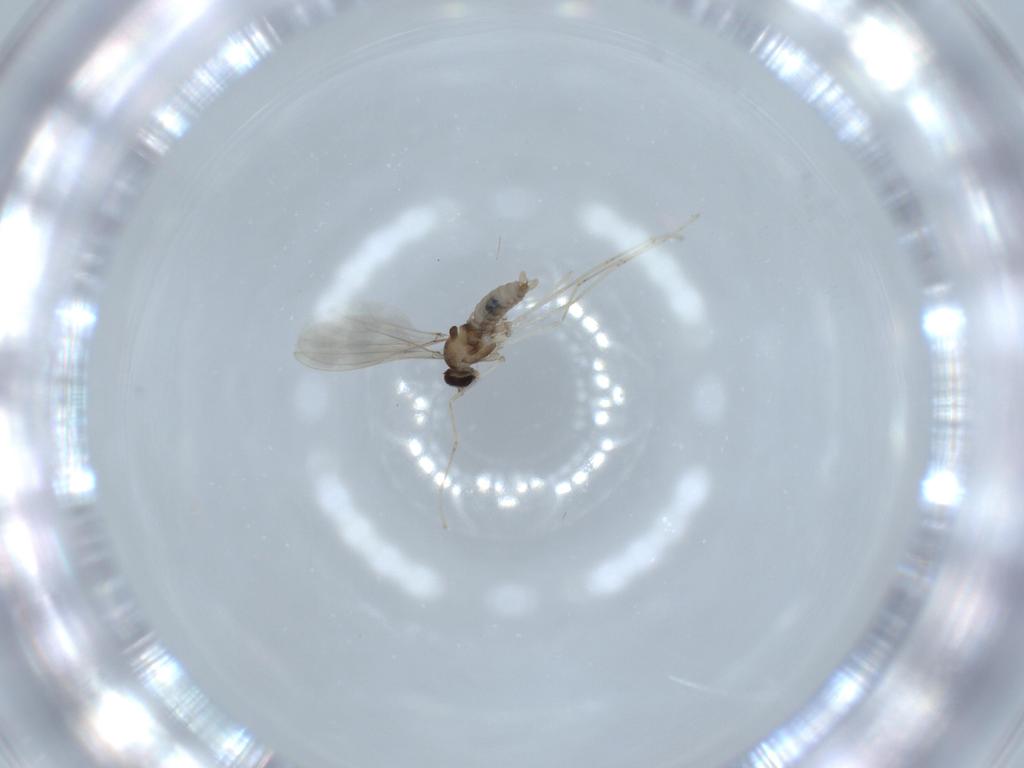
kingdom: Animalia
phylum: Arthropoda
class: Insecta
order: Diptera
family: Cecidomyiidae
